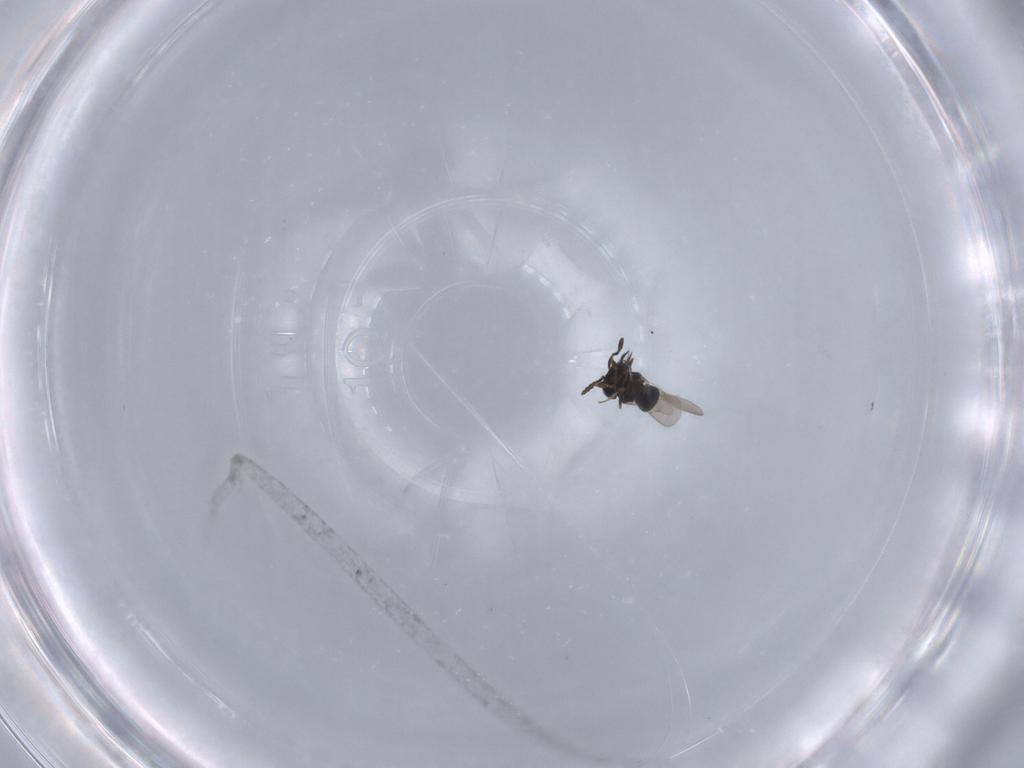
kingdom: Animalia
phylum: Arthropoda
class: Insecta
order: Hymenoptera
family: Scelionidae
